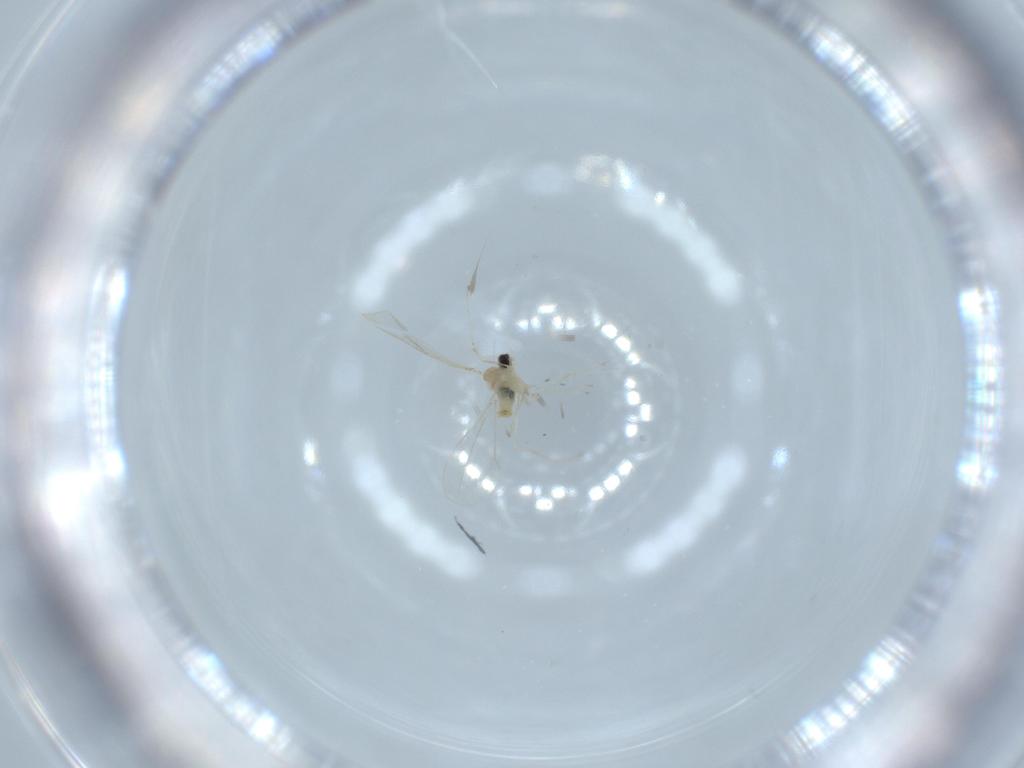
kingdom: Animalia
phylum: Arthropoda
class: Insecta
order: Diptera
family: Cecidomyiidae
